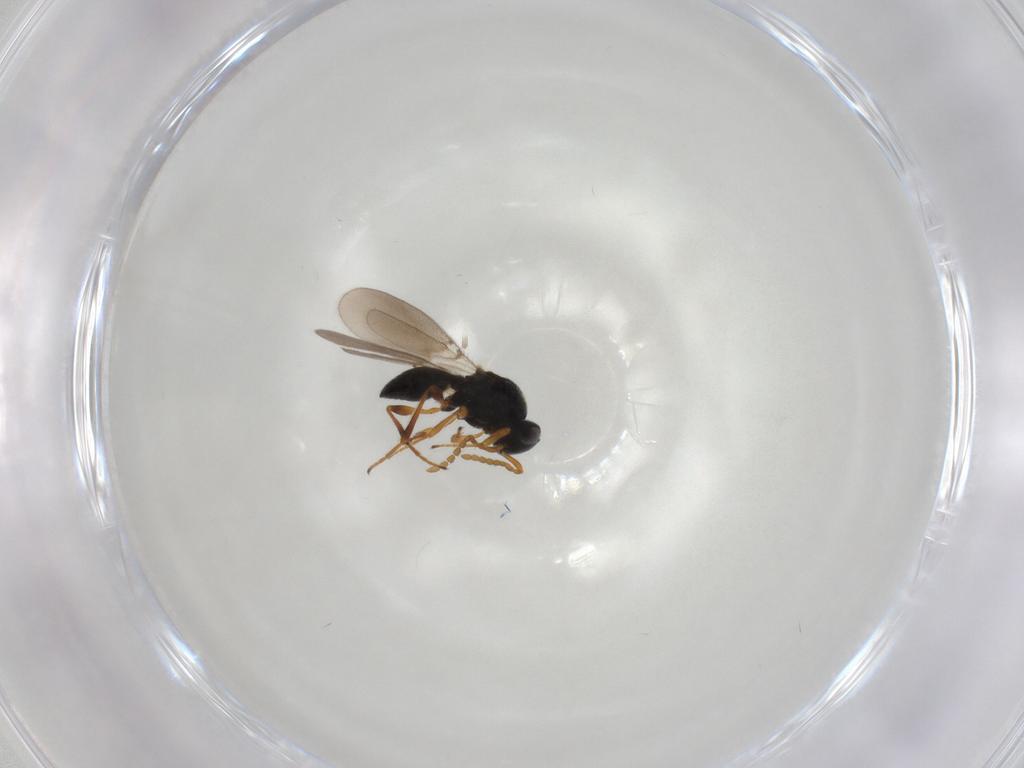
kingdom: Animalia
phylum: Arthropoda
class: Insecta
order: Hymenoptera
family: Platygastridae
